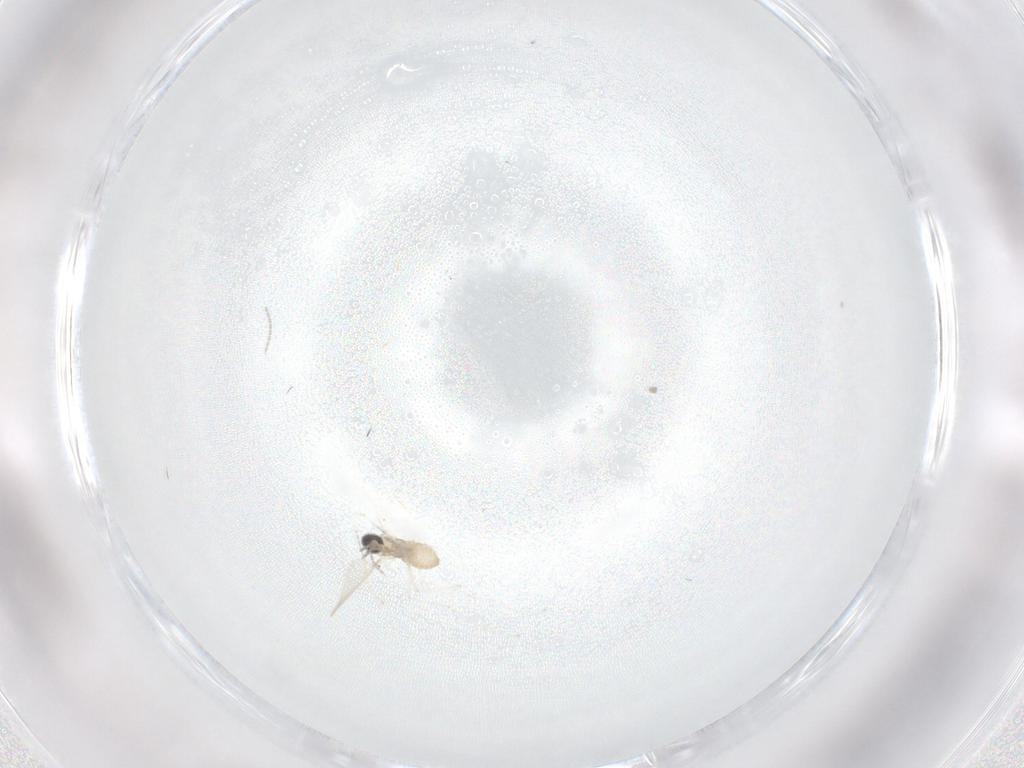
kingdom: Animalia
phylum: Arthropoda
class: Insecta
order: Diptera
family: Cecidomyiidae
